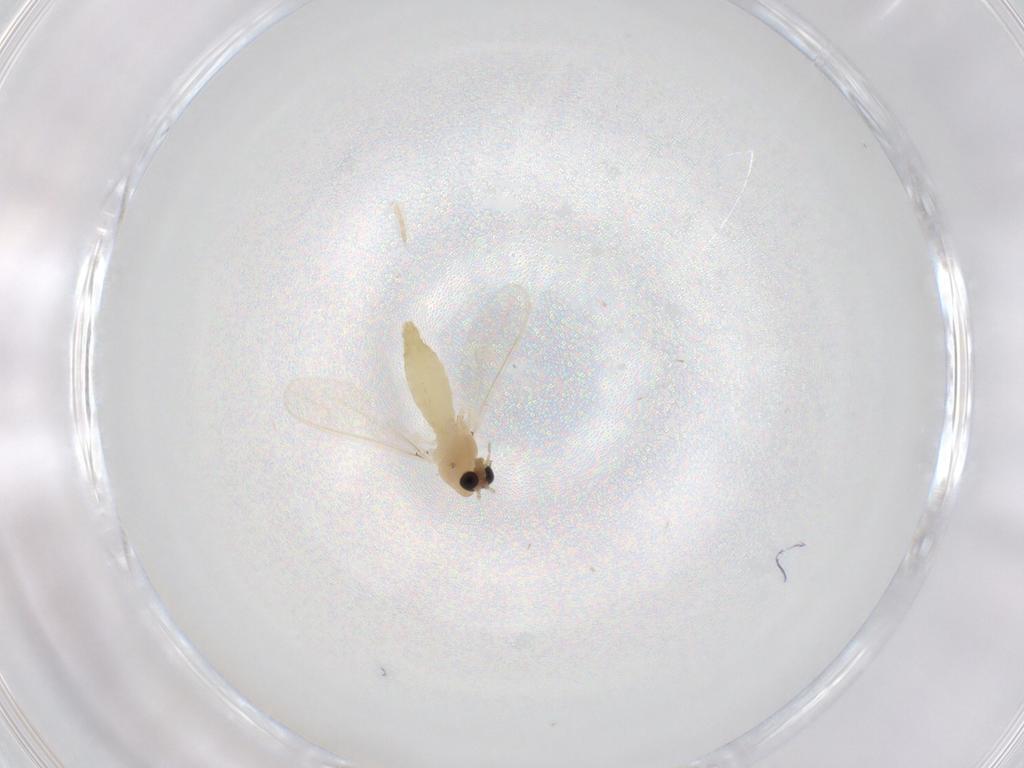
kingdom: Animalia
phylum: Arthropoda
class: Insecta
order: Diptera
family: Chironomidae
